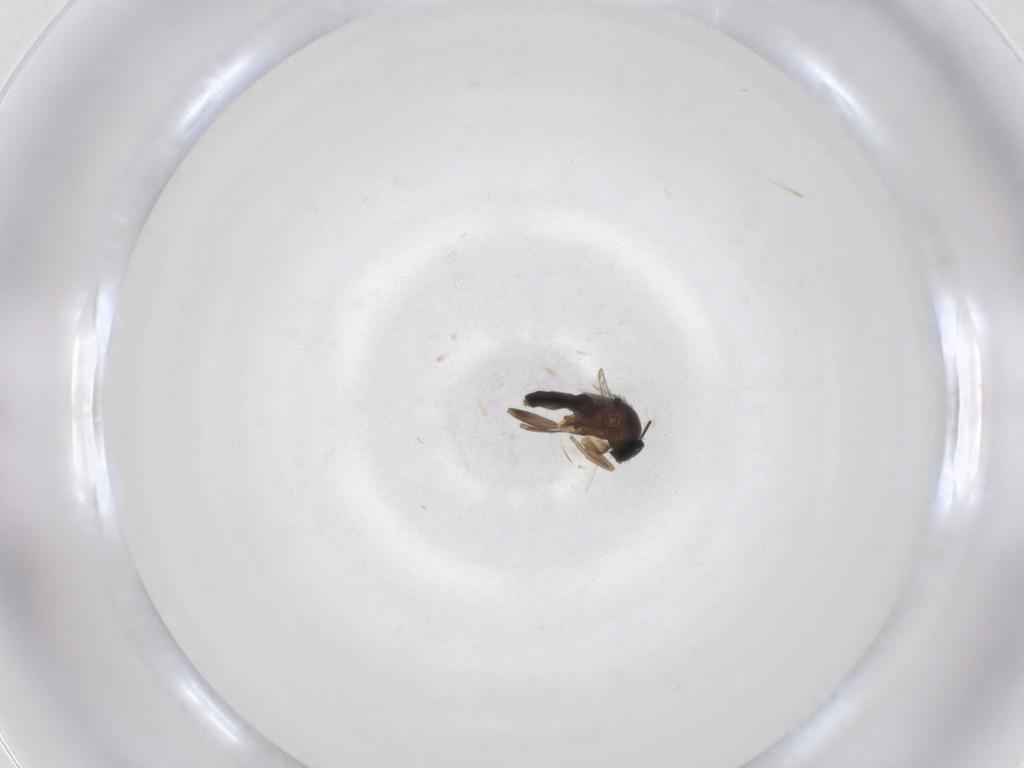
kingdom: Animalia
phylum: Arthropoda
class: Insecta
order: Diptera
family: Phoridae
